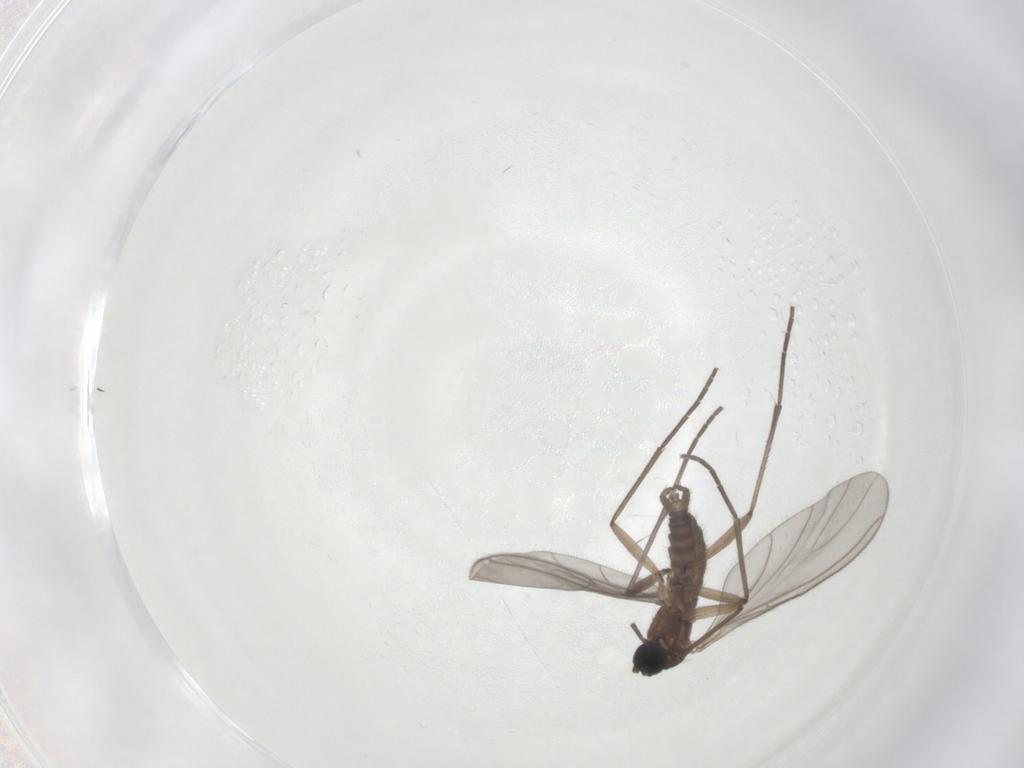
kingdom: Animalia
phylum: Arthropoda
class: Insecta
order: Diptera
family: Sciaridae
